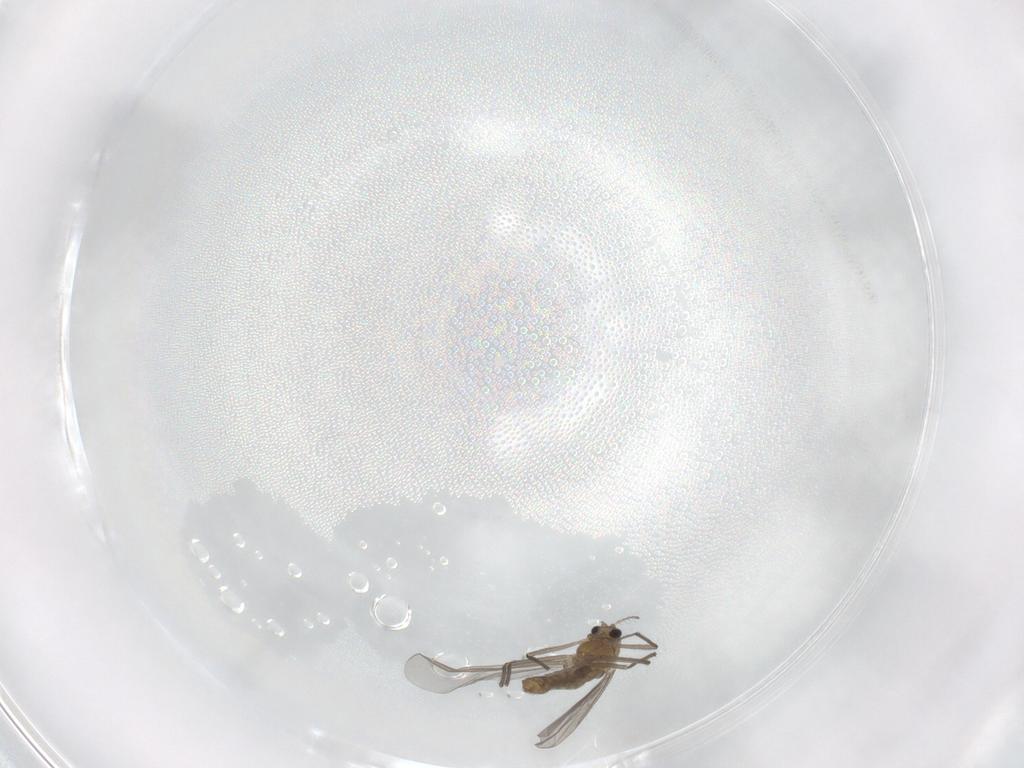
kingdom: Animalia
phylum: Arthropoda
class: Insecta
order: Diptera
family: Chironomidae
